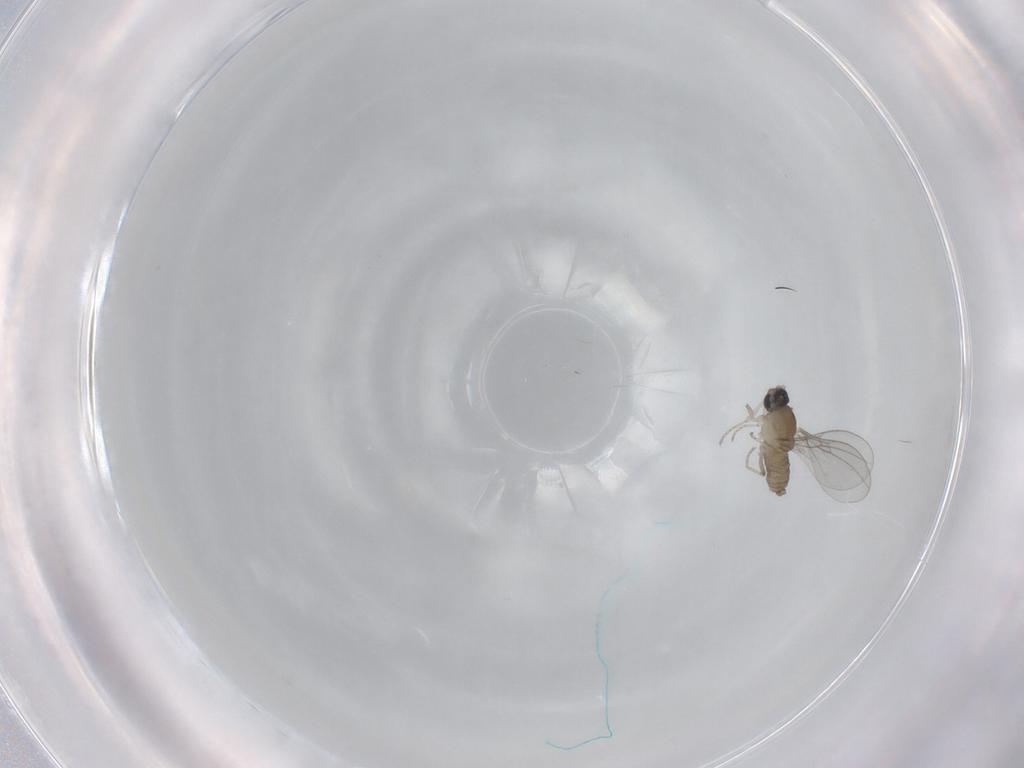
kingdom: Animalia
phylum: Arthropoda
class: Insecta
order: Diptera
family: Cecidomyiidae
